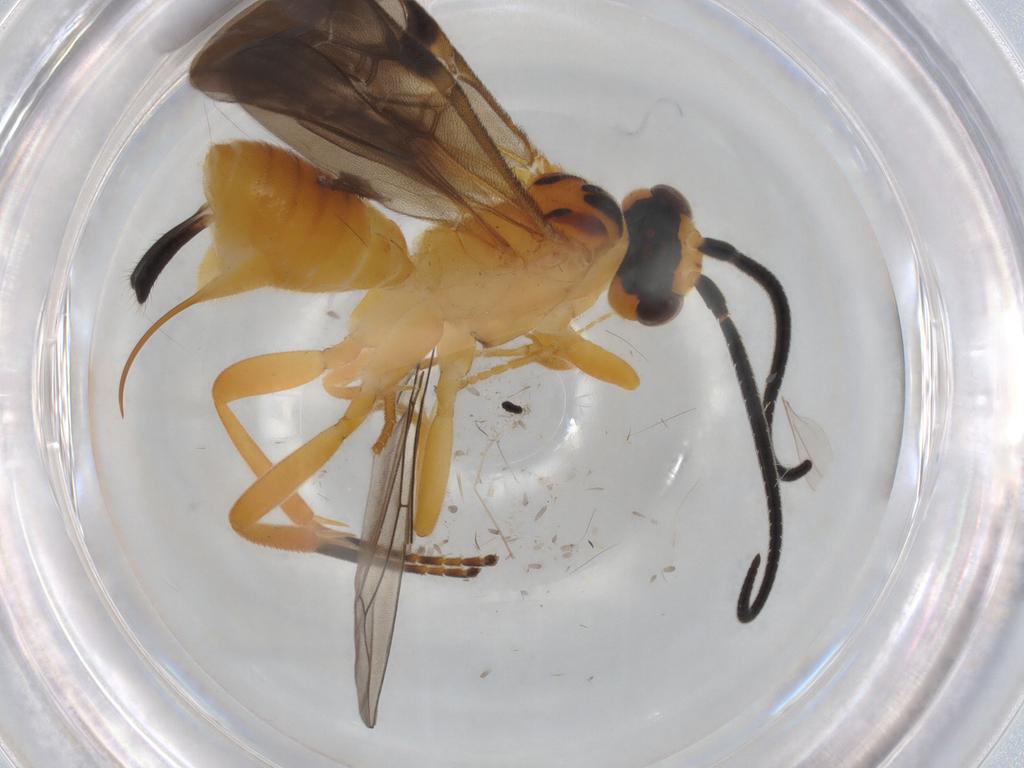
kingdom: Animalia
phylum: Arthropoda
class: Insecta
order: Hymenoptera
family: Braconidae
